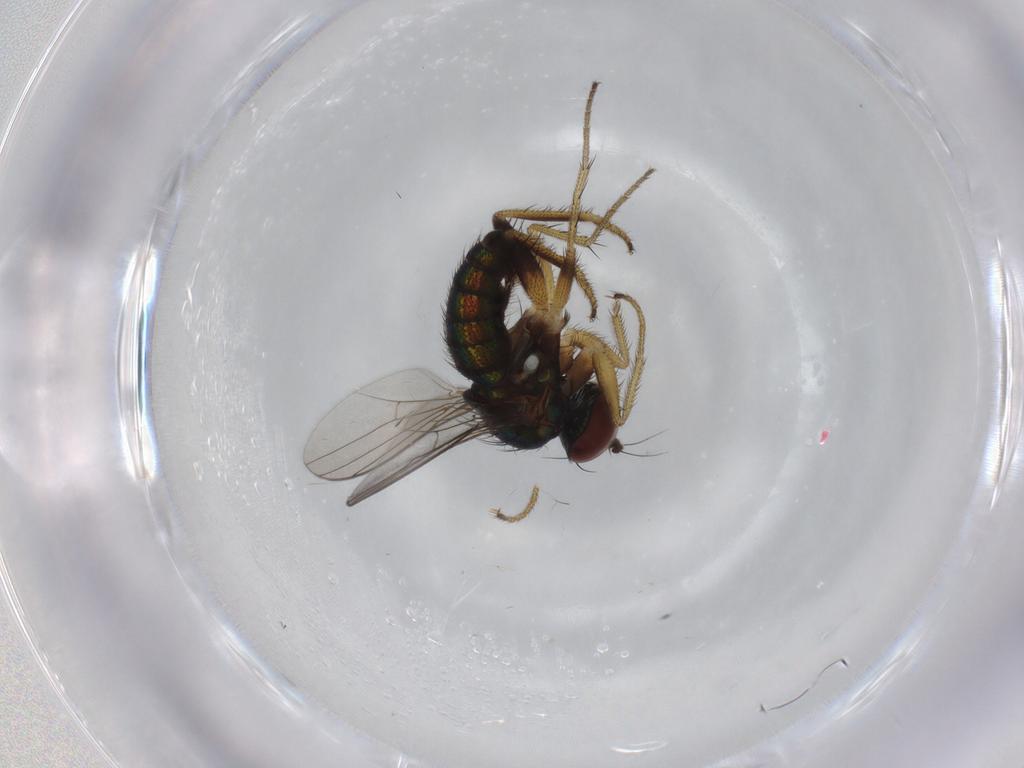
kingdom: Animalia
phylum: Arthropoda
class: Insecta
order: Diptera
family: Dolichopodidae
